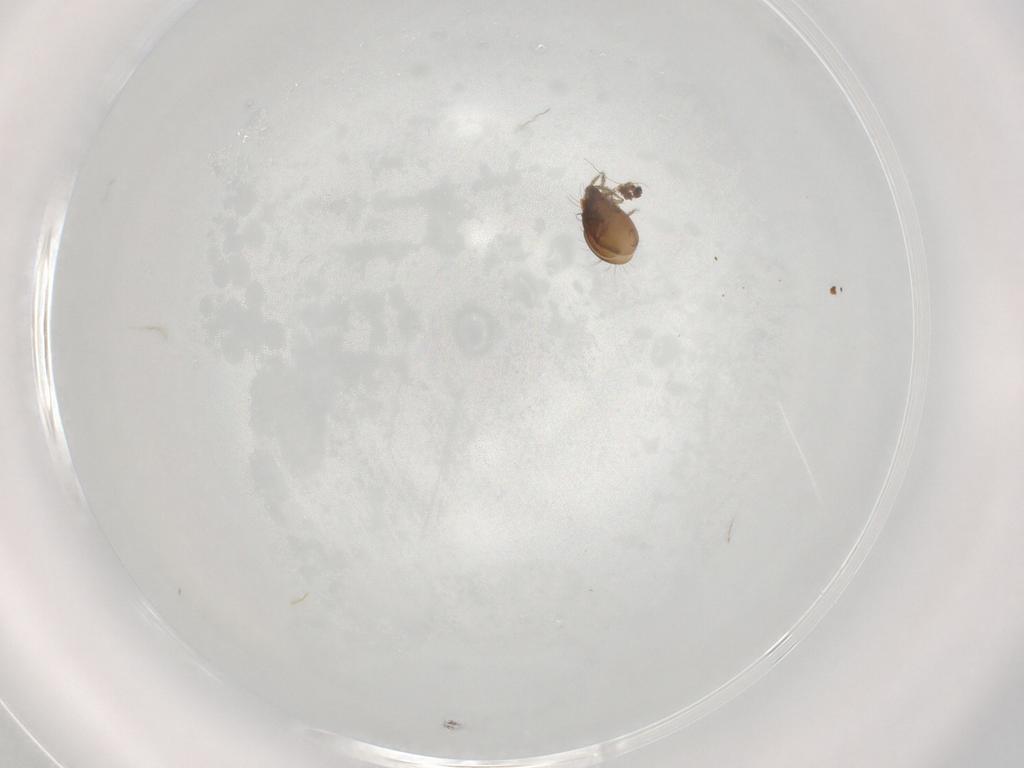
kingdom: Animalia
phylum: Arthropoda
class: Arachnida
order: Sarcoptiformes
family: Humerobatidae
